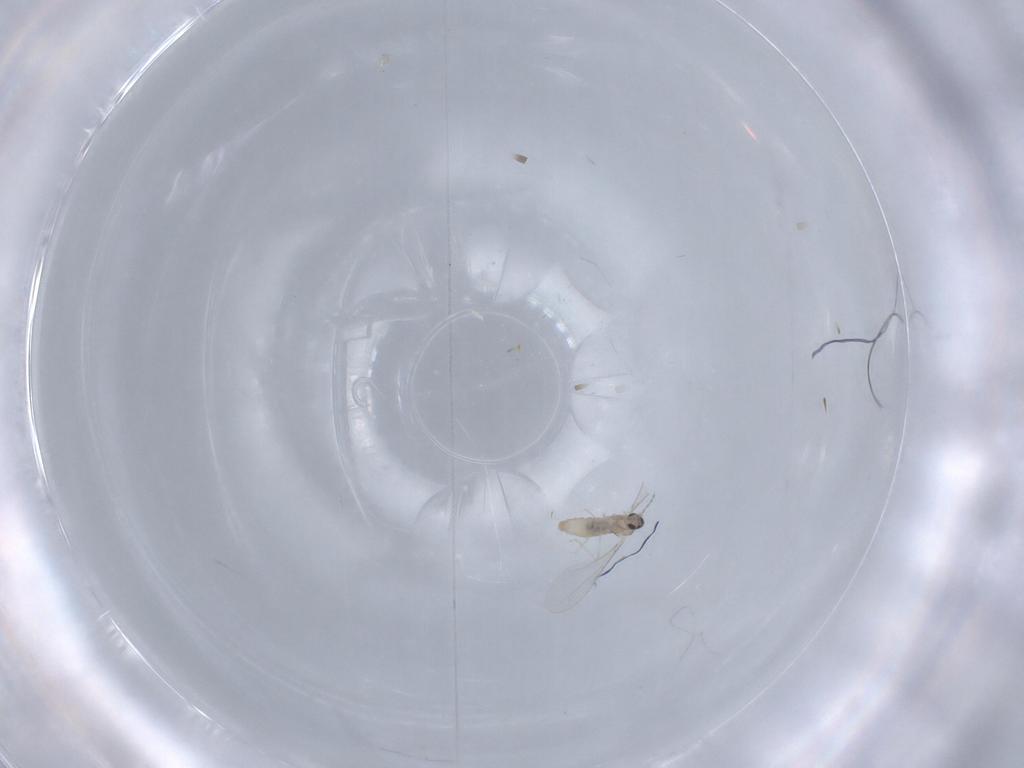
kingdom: Animalia
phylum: Arthropoda
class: Insecta
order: Diptera
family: Cecidomyiidae
